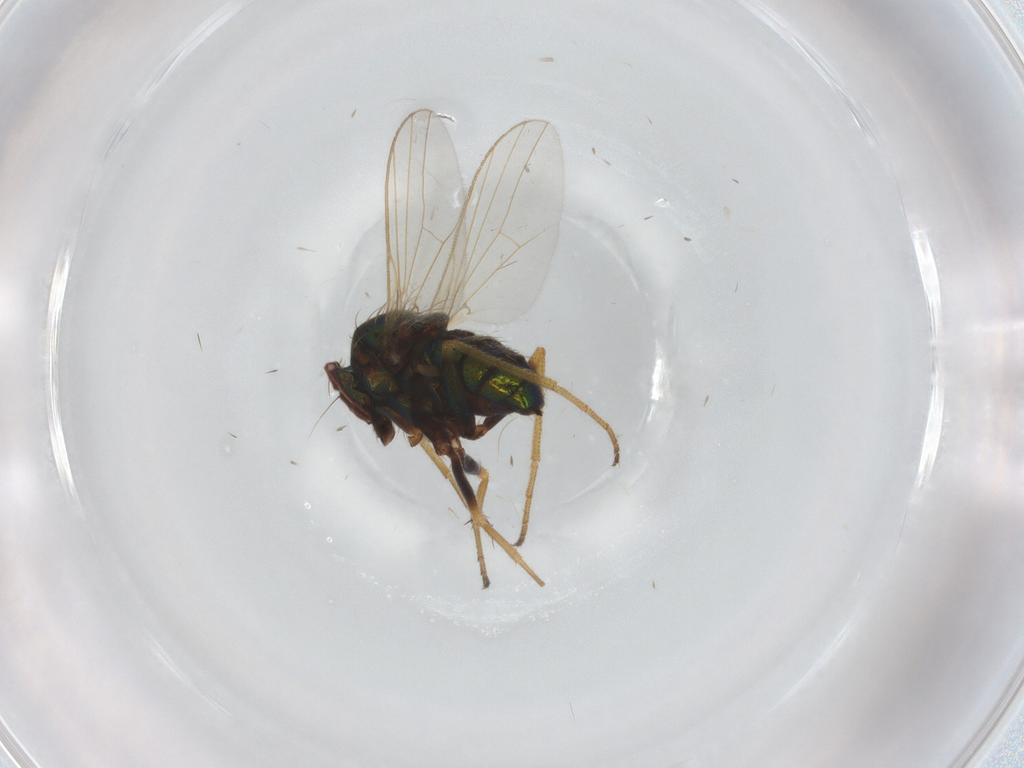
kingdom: Animalia
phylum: Arthropoda
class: Insecta
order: Diptera
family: Dolichopodidae
